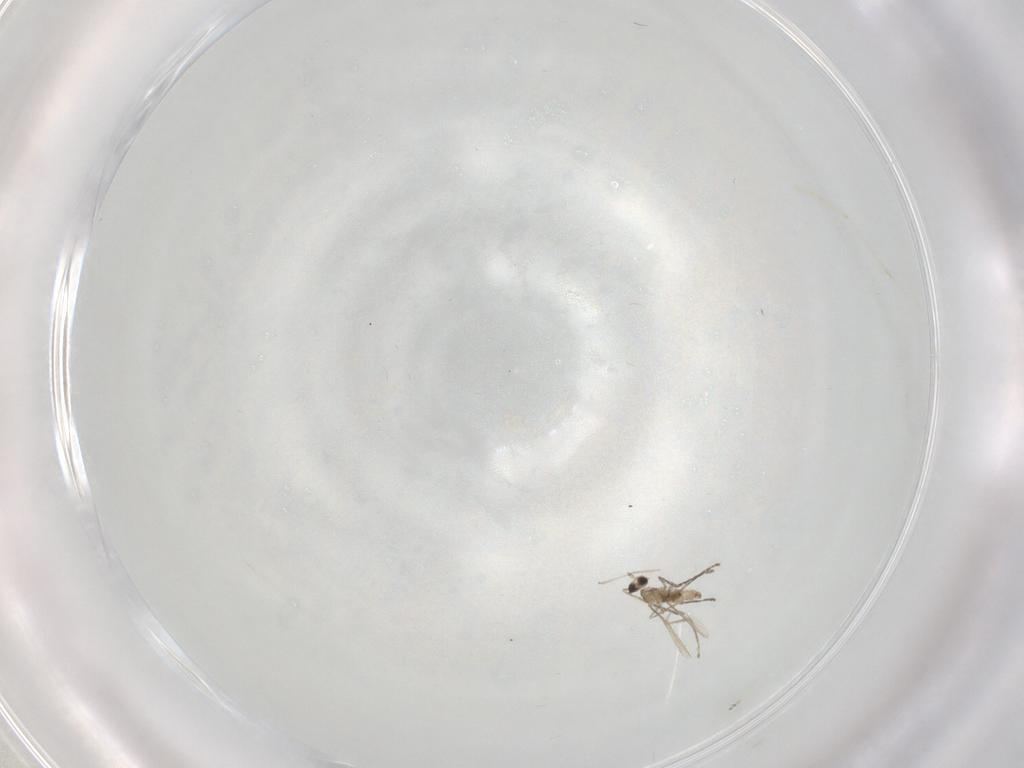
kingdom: Animalia
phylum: Arthropoda
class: Insecta
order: Diptera
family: Cecidomyiidae
